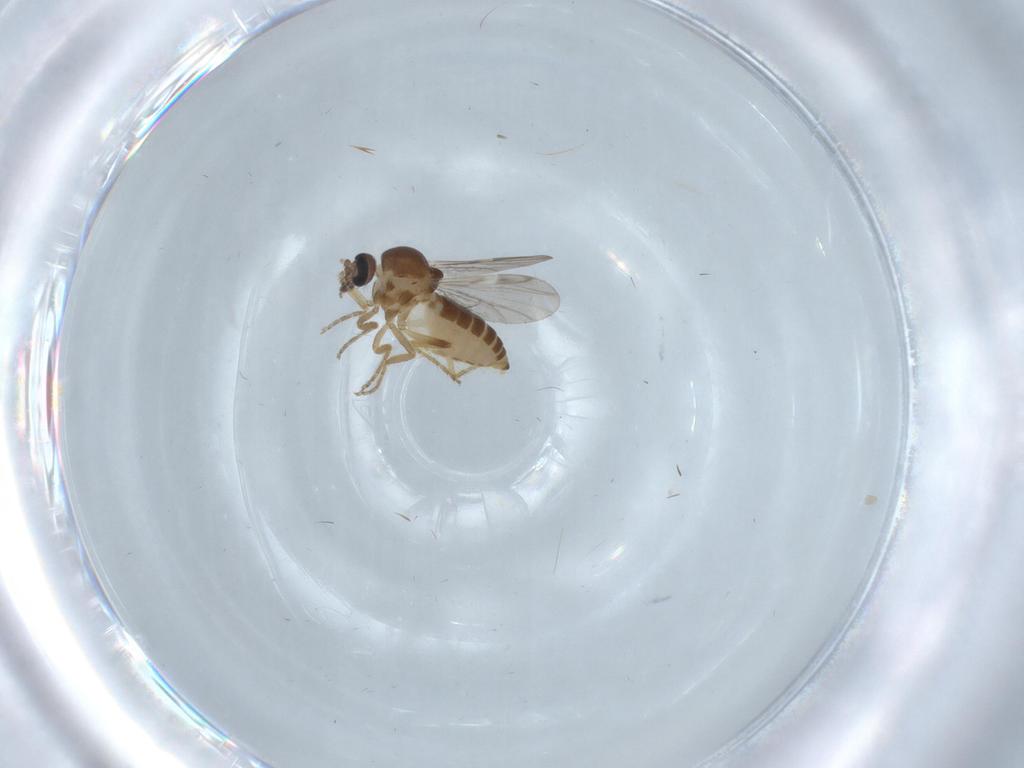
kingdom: Animalia
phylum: Arthropoda
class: Insecta
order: Diptera
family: Ceratopogonidae
